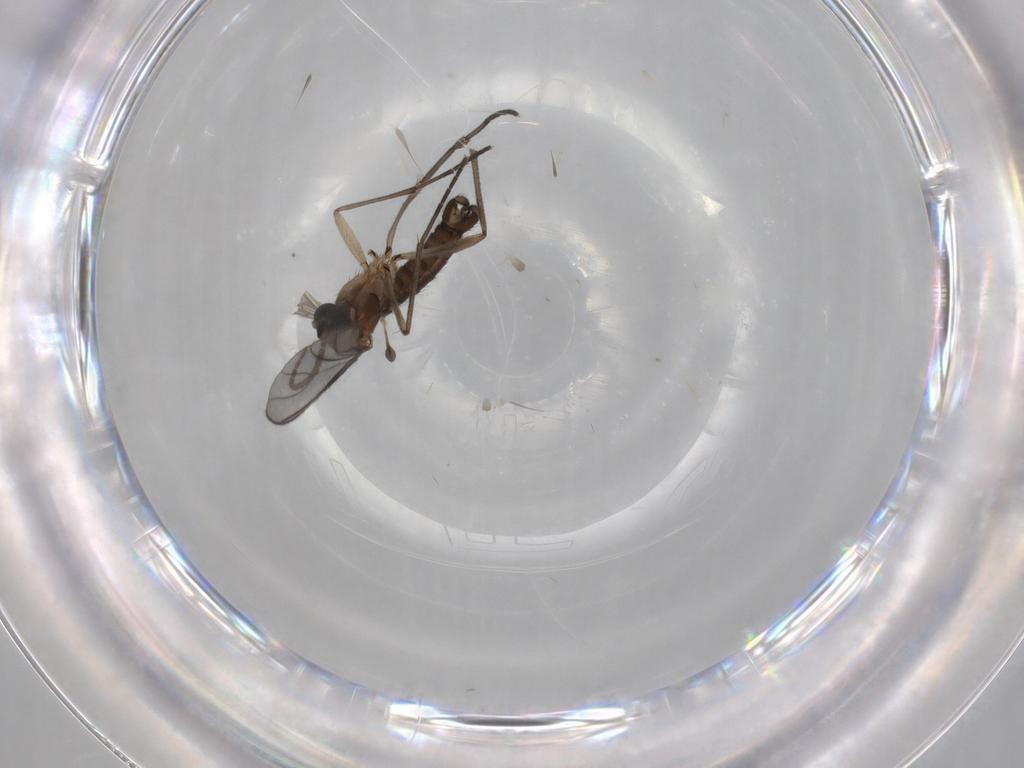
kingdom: Animalia
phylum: Arthropoda
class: Insecta
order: Diptera
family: Sciaridae
